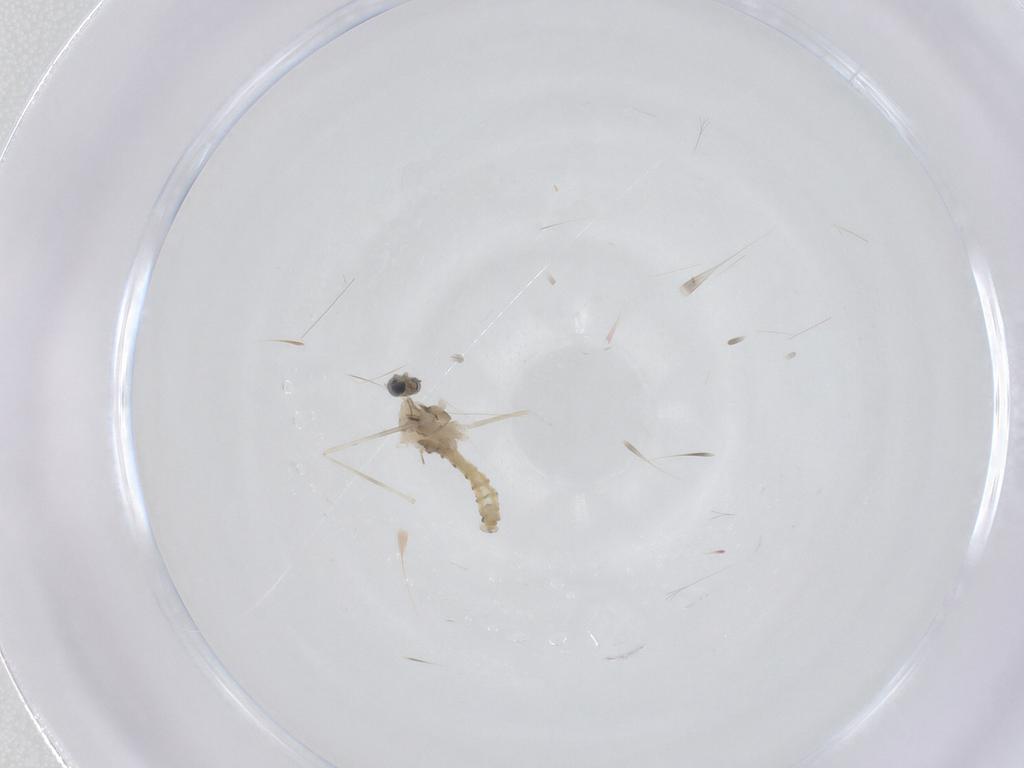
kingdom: Animalia
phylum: Arthropoda
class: Insecta
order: Diptera
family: Cecidomyiidae
